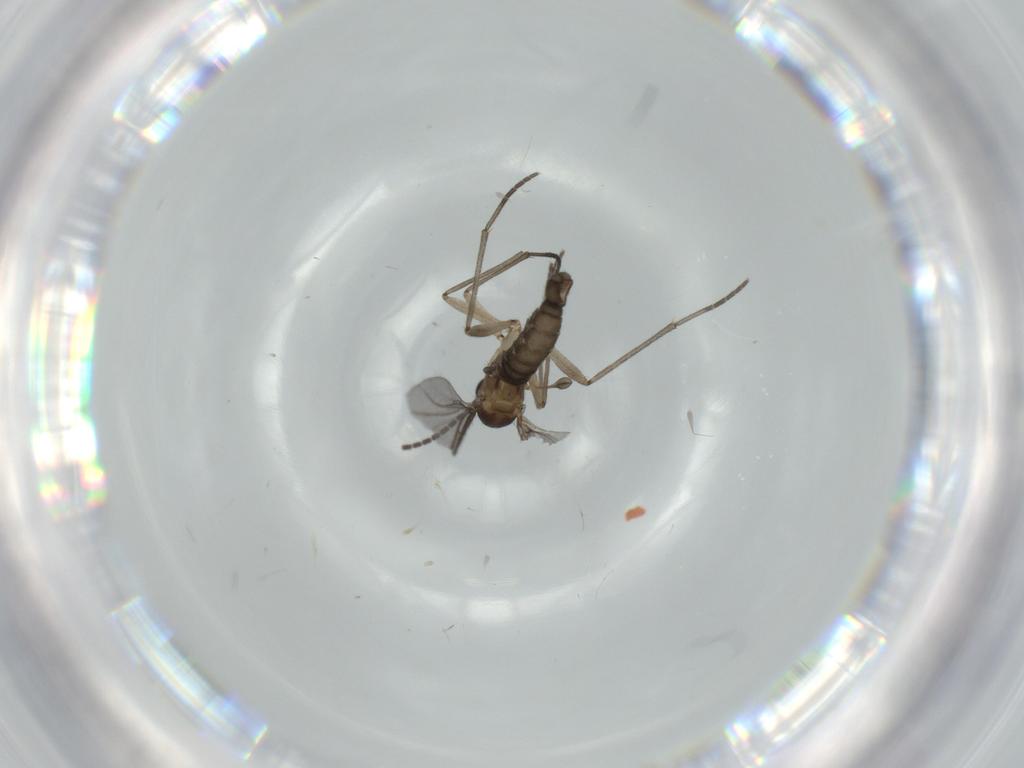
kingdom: Animalia
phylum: Arthropoda
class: Insecta
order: Diptera
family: Sciaridae
